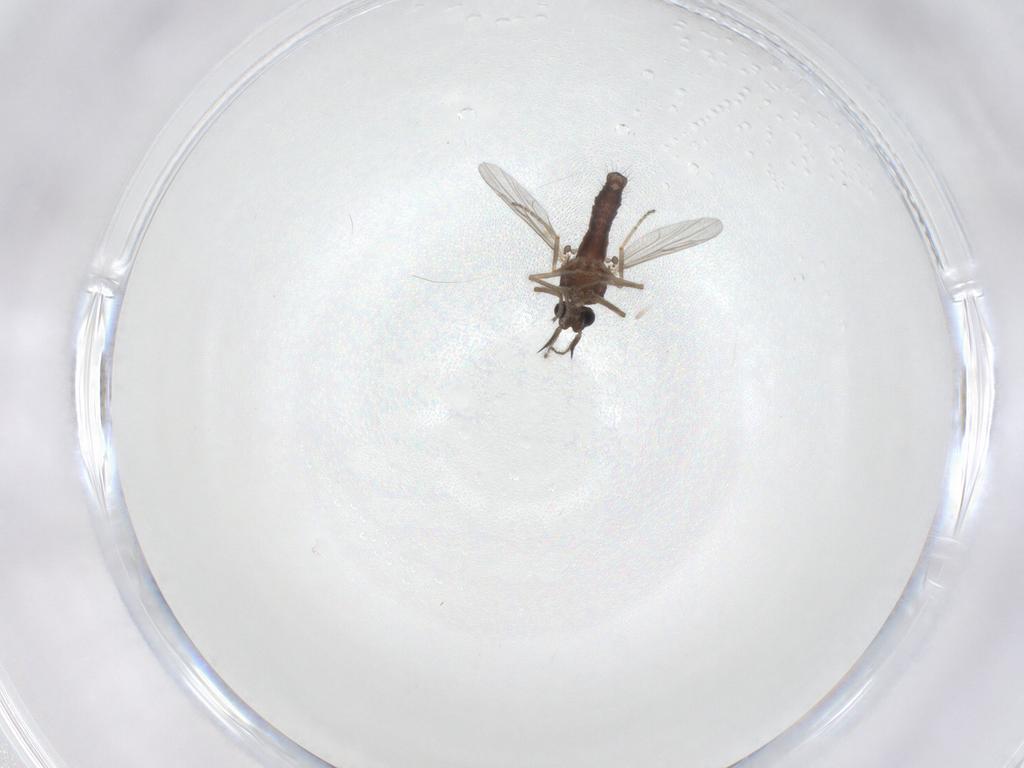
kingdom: Animalia
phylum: Arthropoda
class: Insecta
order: Diptera
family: Ceratopogonidae
